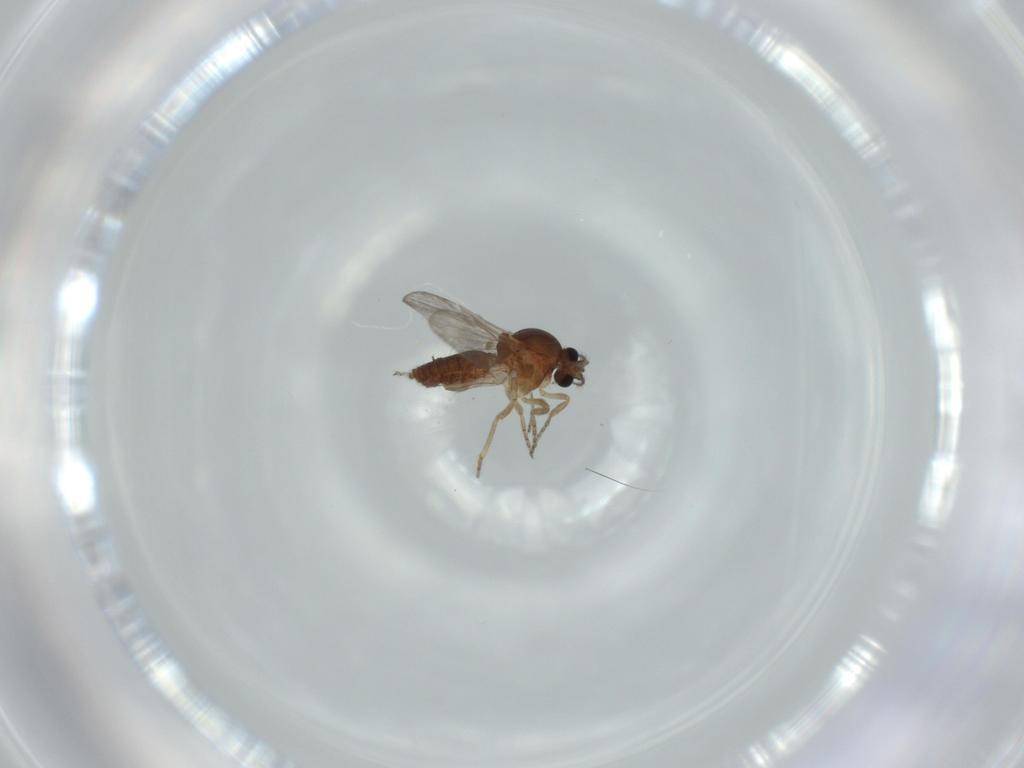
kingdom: Animalia
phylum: Arthropoda
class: Insecta
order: Diptera
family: Ceratopogonidae
